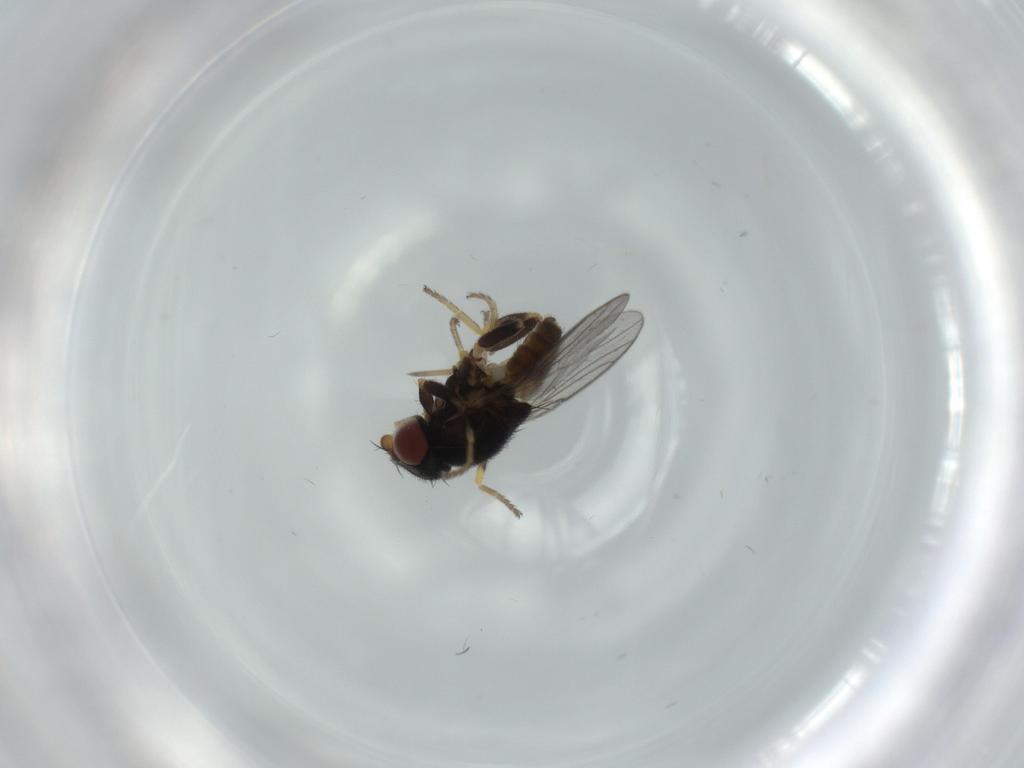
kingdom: Animalia
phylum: Arthropoda
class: Insecta
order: Diptera
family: Chloropidae
